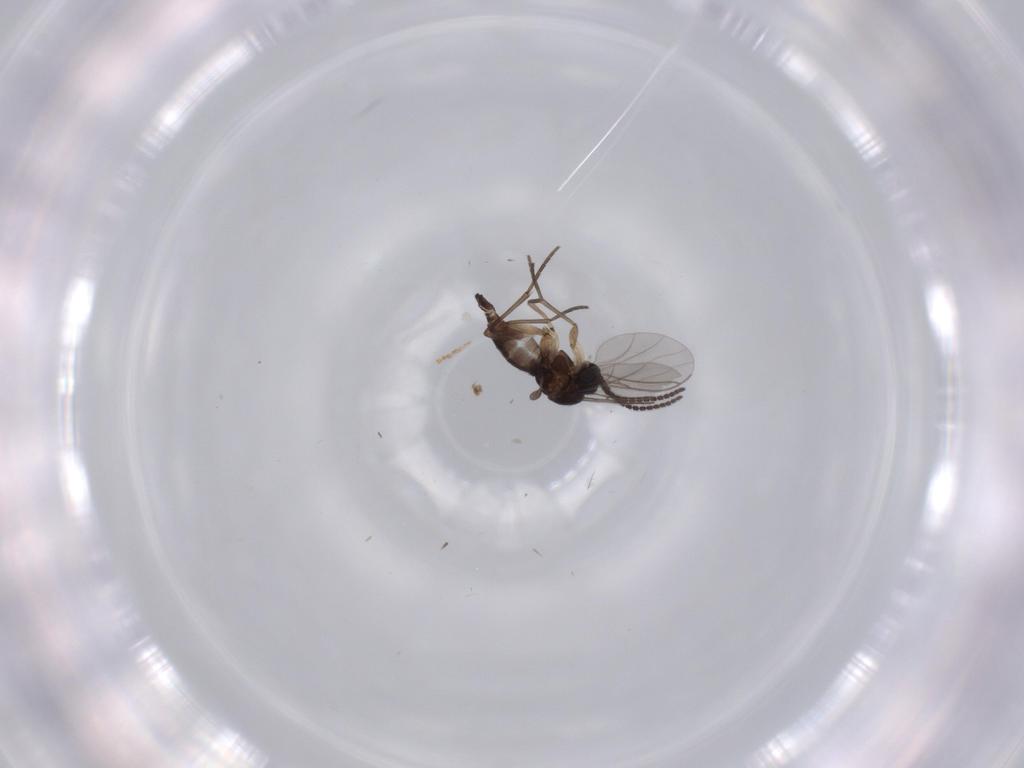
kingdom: Animalia
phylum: Arthropoda
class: Insecta
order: Diptera
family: Sciaridae
